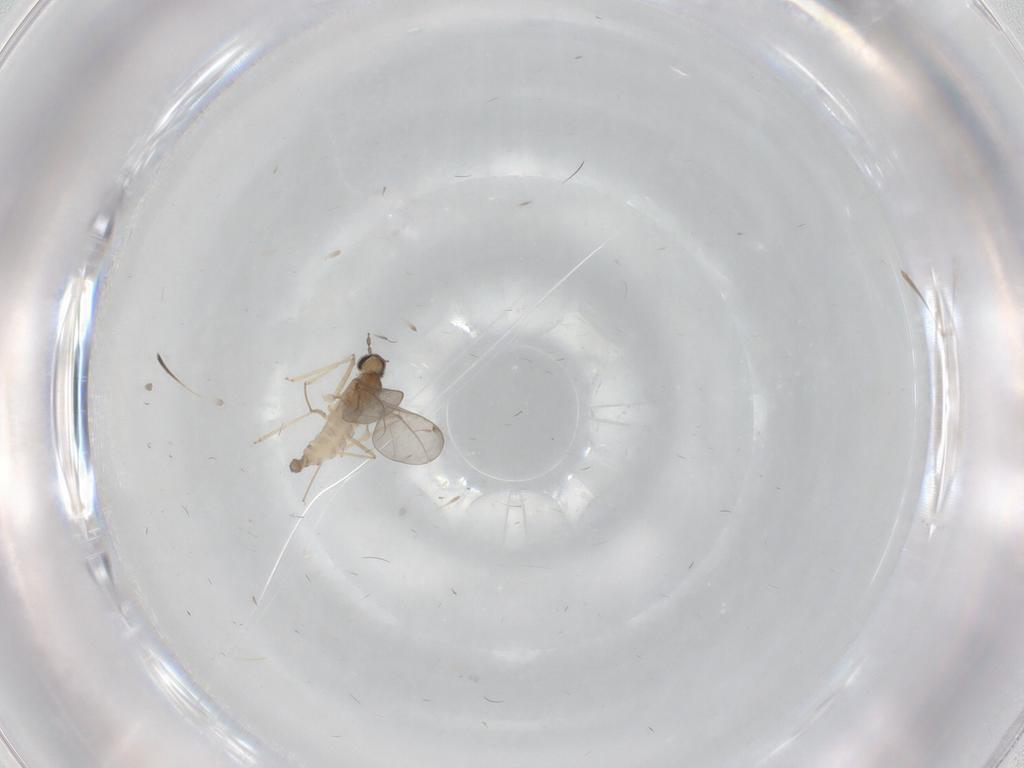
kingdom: Animalia
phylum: Arthropoda
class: Insecta
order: Diptera
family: Cecidomyiidae
